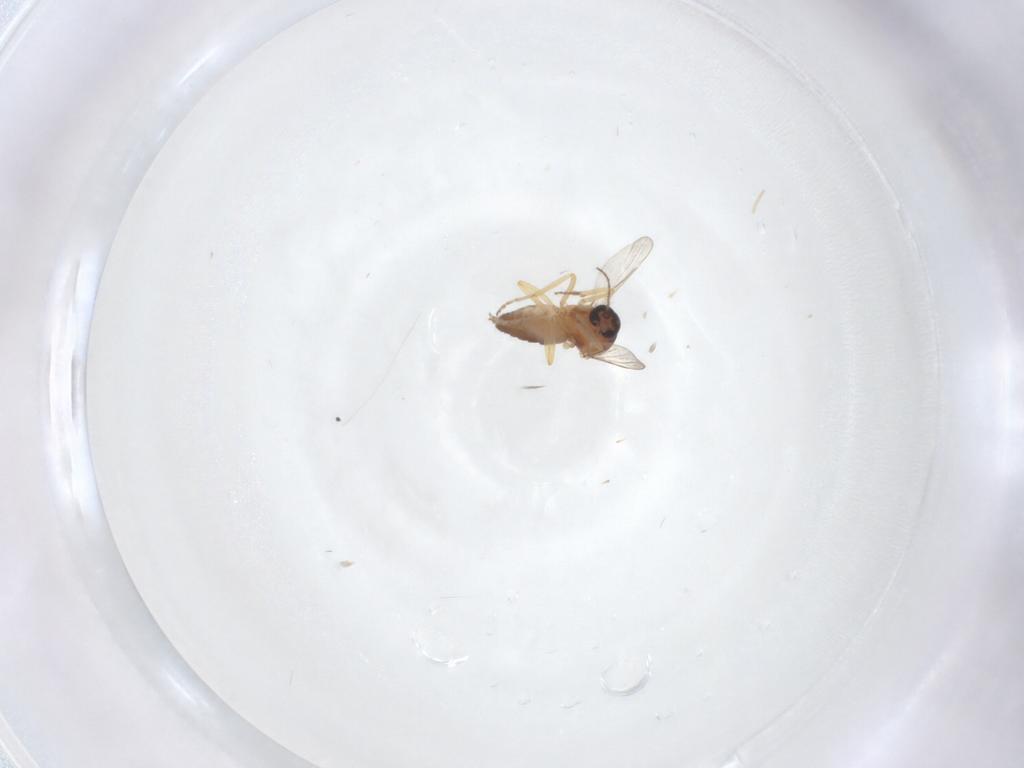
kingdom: Animalia
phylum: Arthropoda
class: Insecta
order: Diptera
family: Ceratopogonidae
